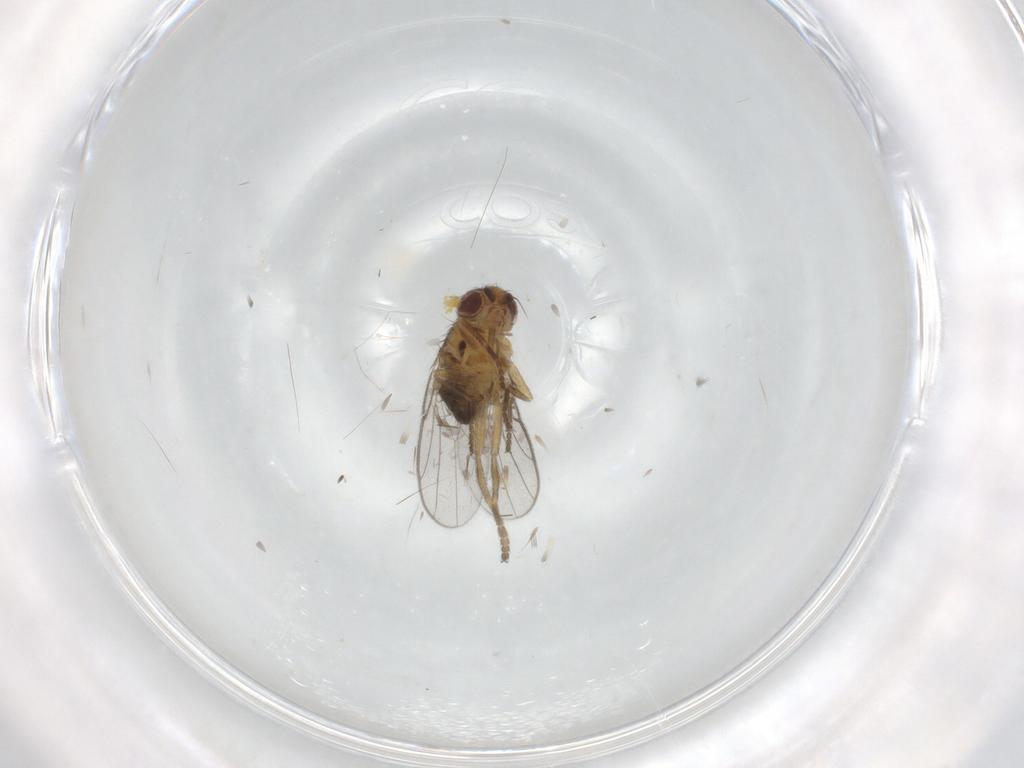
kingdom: Animalia
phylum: Arthropoda
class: Insecta
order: Diptera
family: Chloropidae
